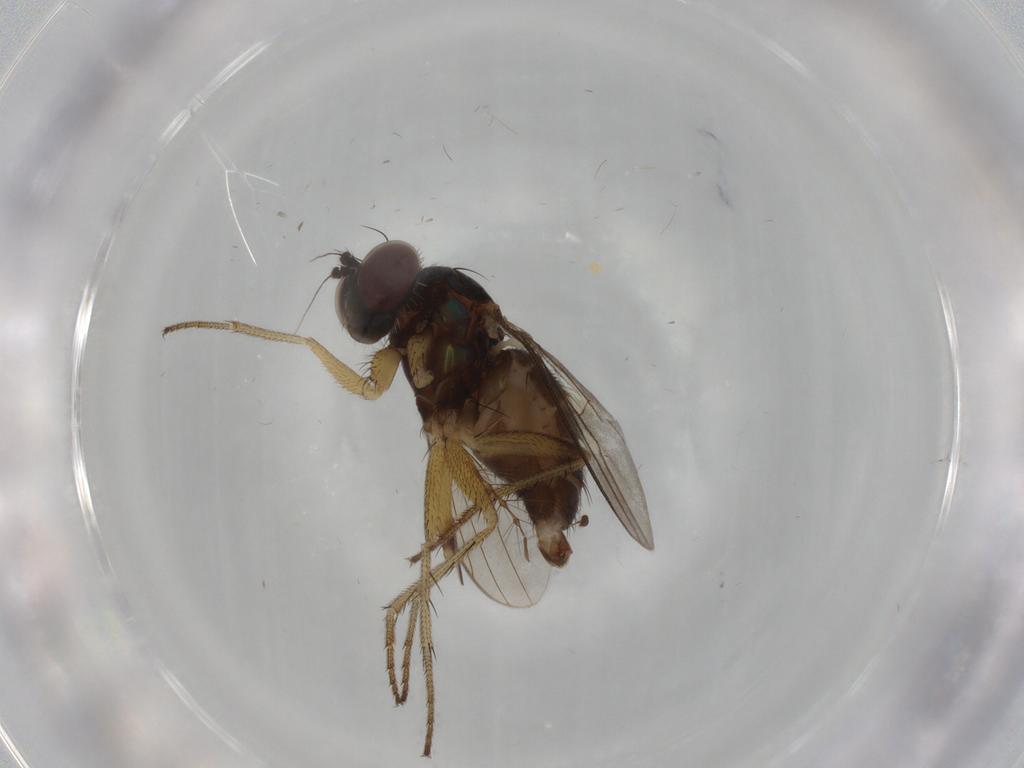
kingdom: Animalia
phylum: Arthropoda
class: Insecta
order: Diptera
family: Dolichopodidae
